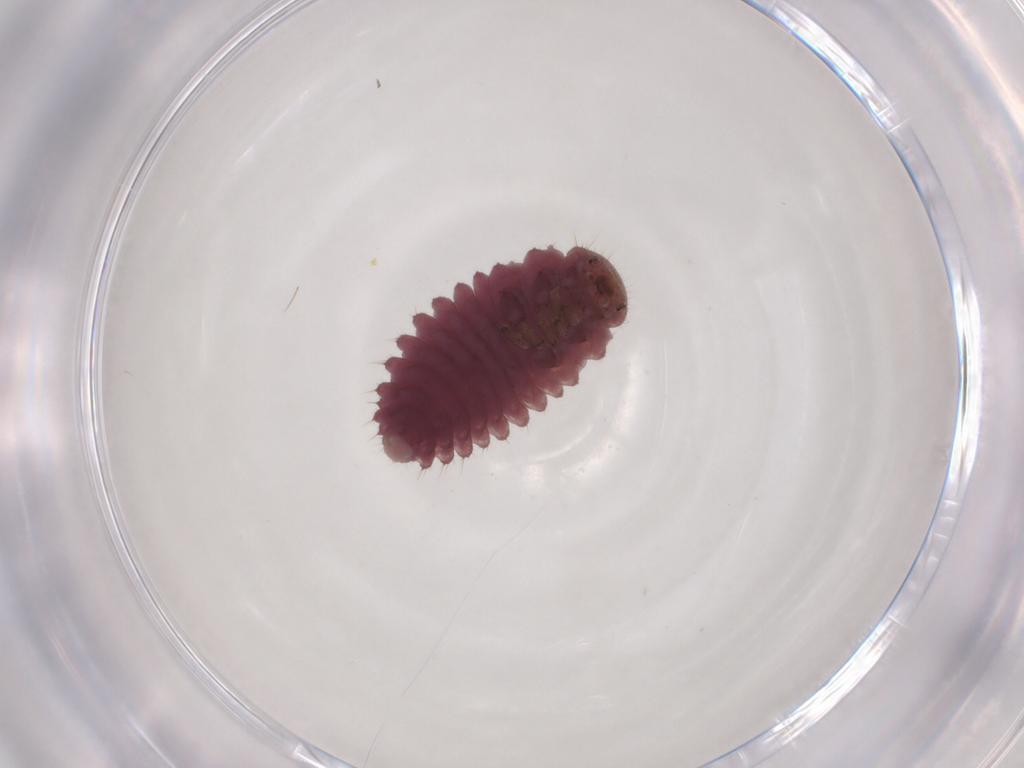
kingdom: Animalia
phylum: Arthropoda
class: Insecta
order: Coleoptera
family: Coccinellidae
